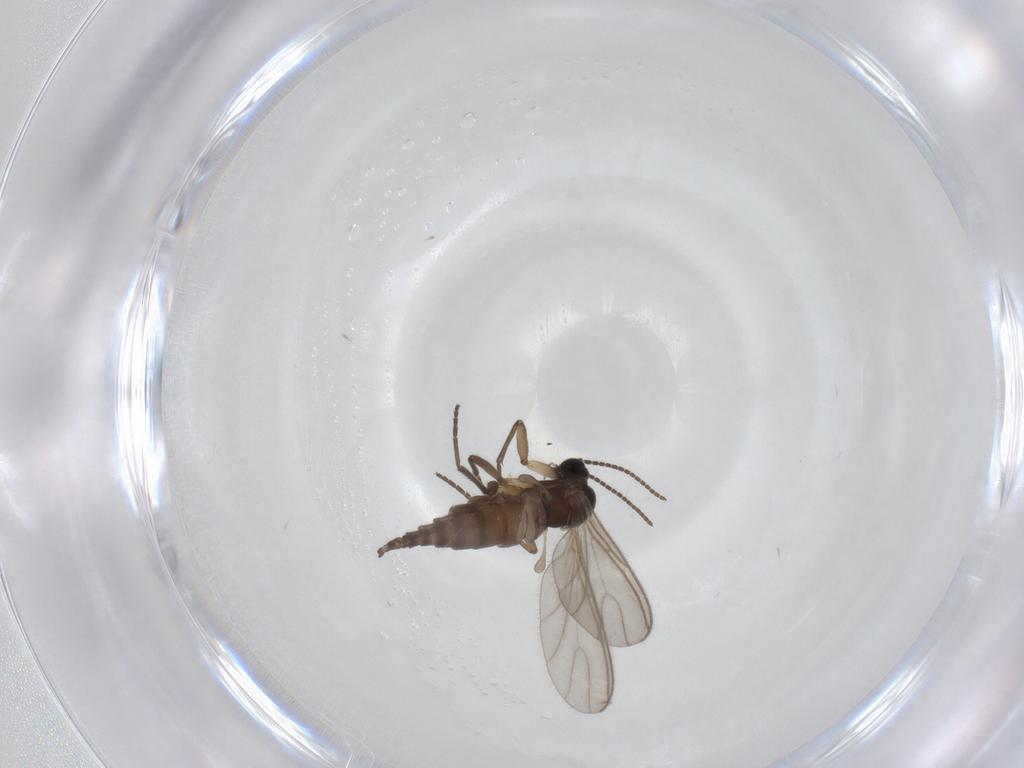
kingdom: Animalia
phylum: Arthropoda
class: Insecta
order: Diptera
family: Sciaridae
